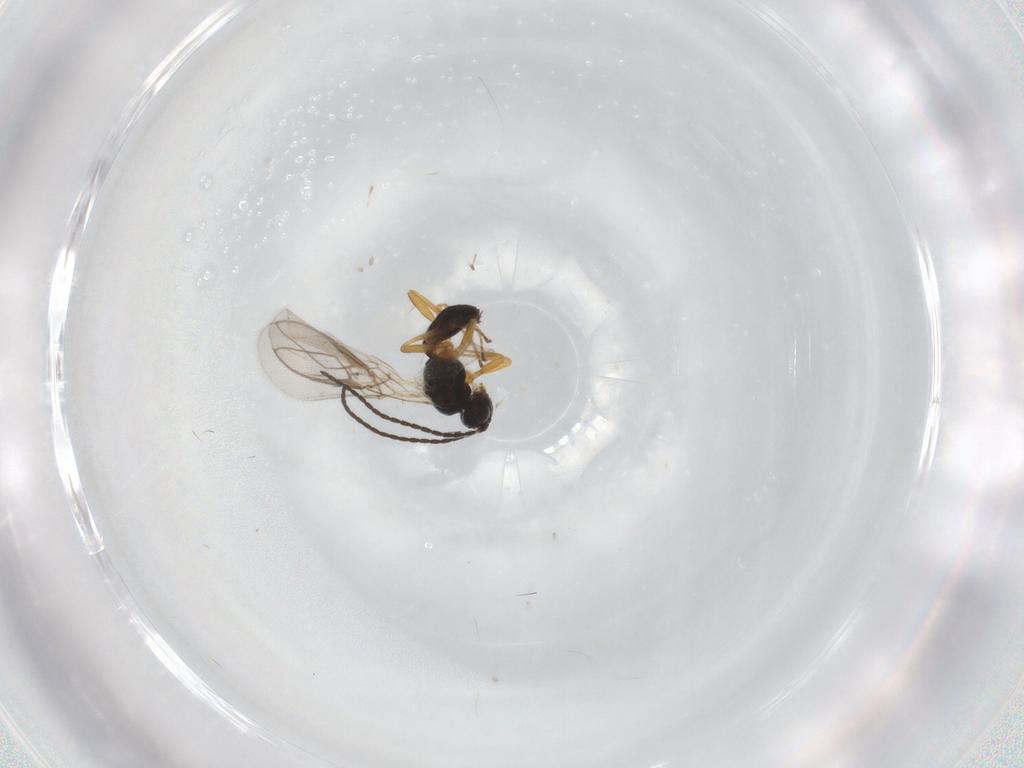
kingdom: Animalia
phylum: Arthropoda
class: Insecta
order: Hymenoptera
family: Braconidae
